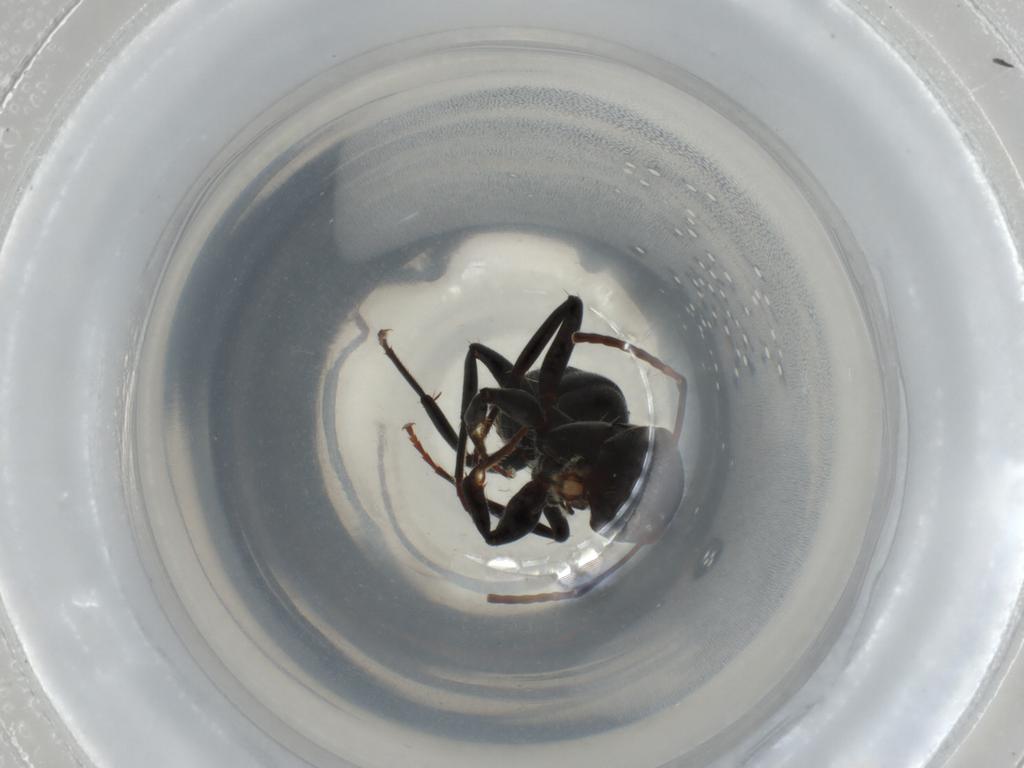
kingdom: Animalia
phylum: Arthropoda
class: Insecta
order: Hymenoptera
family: Formicidae
